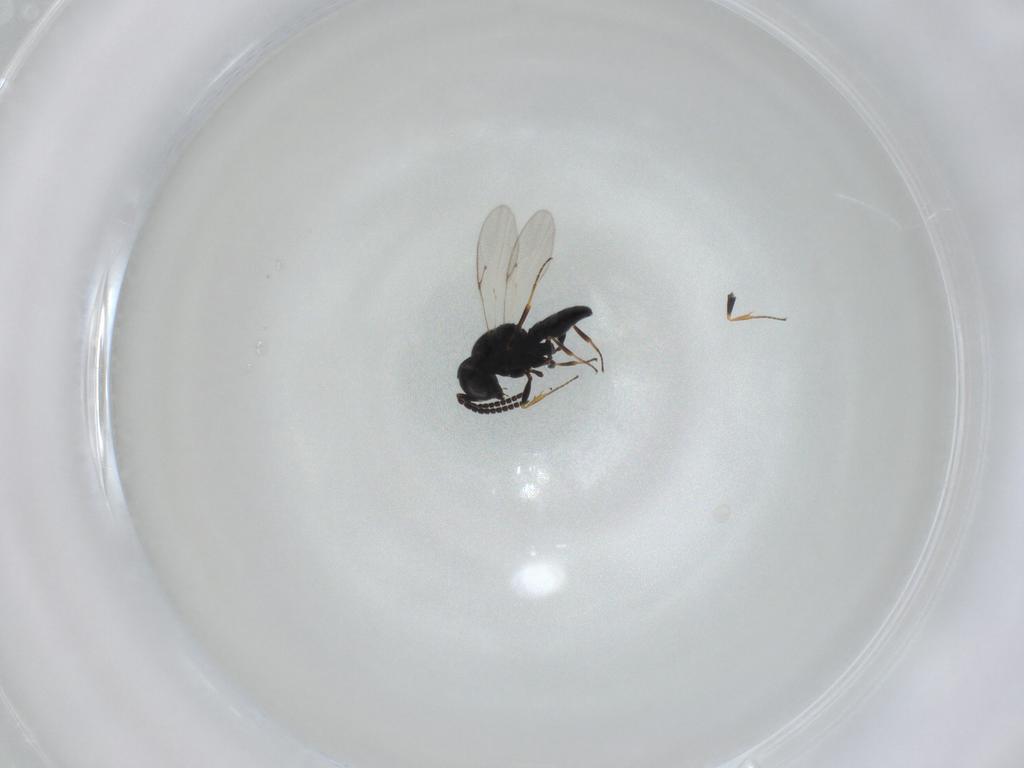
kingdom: Animalia
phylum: Arthropoda
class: Insecta
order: Hymenoptera
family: Scelionidae
